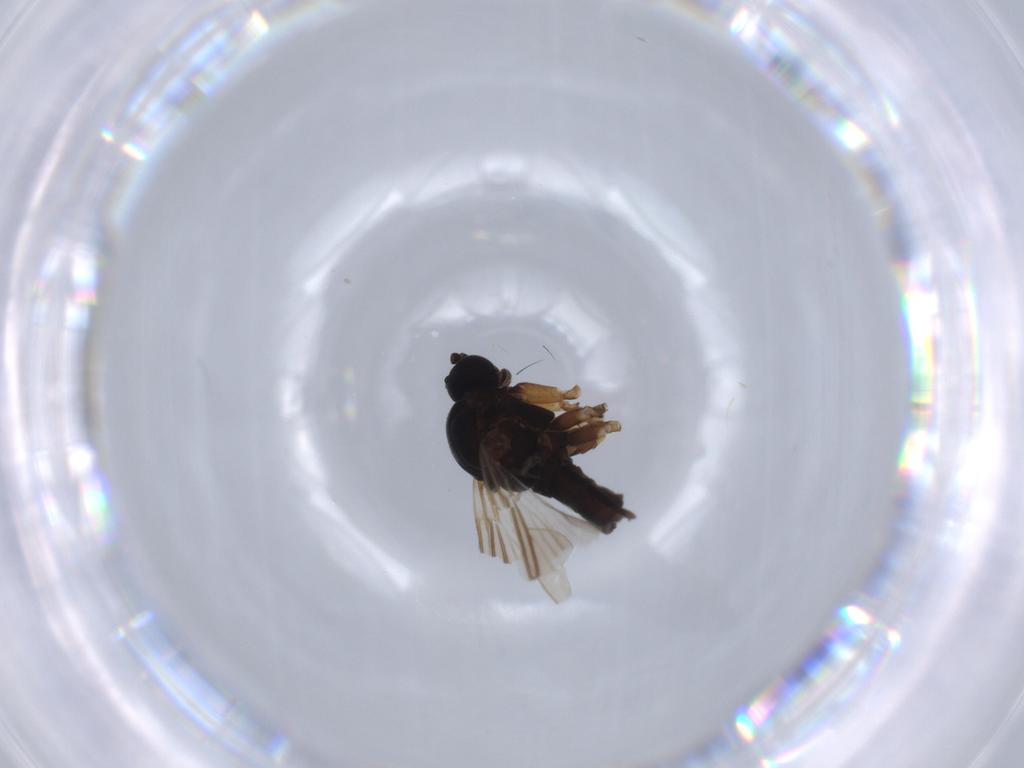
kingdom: Animalia
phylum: Arthropoda
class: Insecta
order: Diptera
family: Sciaridae
